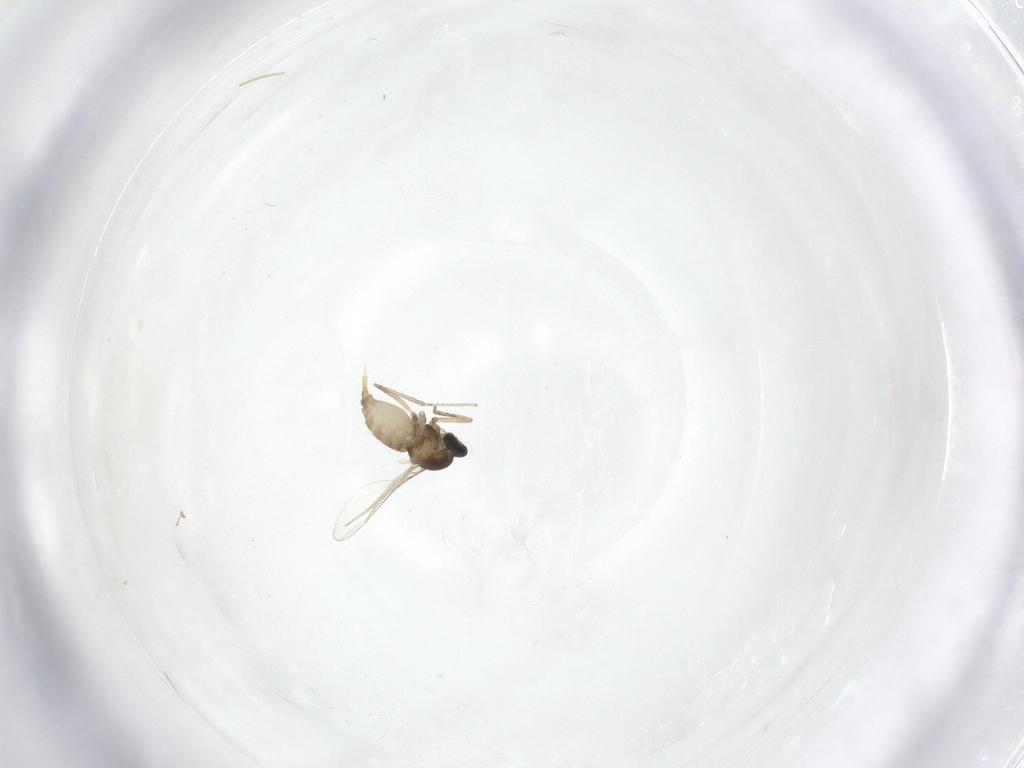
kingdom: Animalia
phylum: Arthropoda
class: Insecta
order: Diptera
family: Cecidomyiidae
